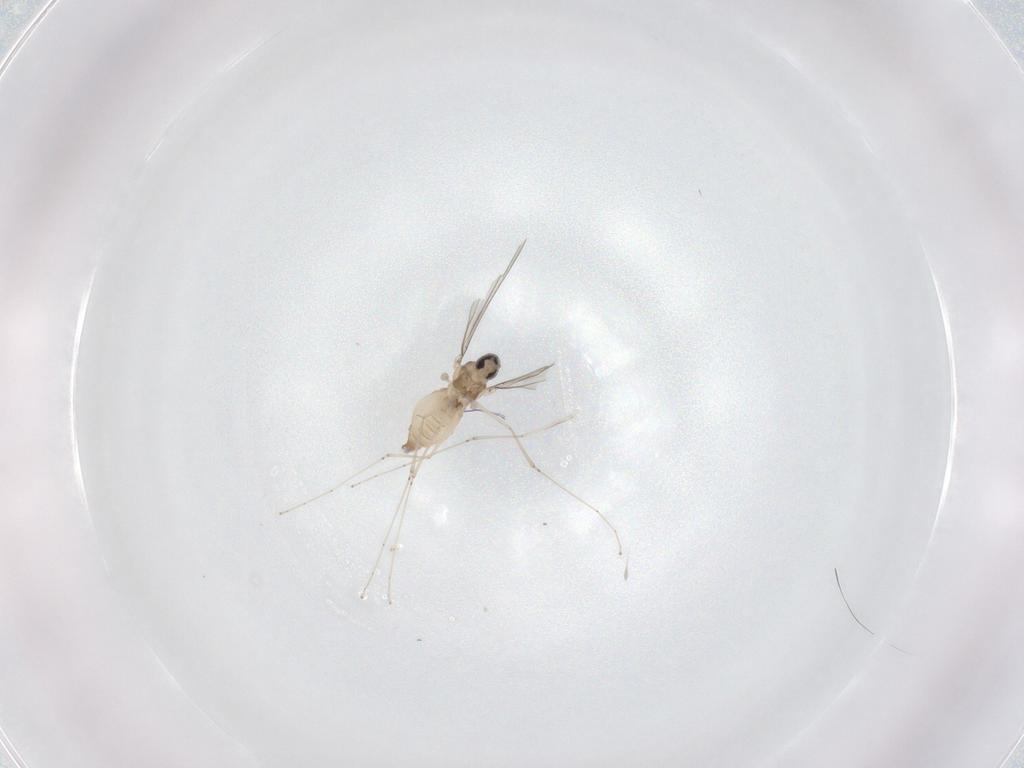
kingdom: Animalia
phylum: Arthropoda
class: Insecta
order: Diptera
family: Cecidomyiidae
